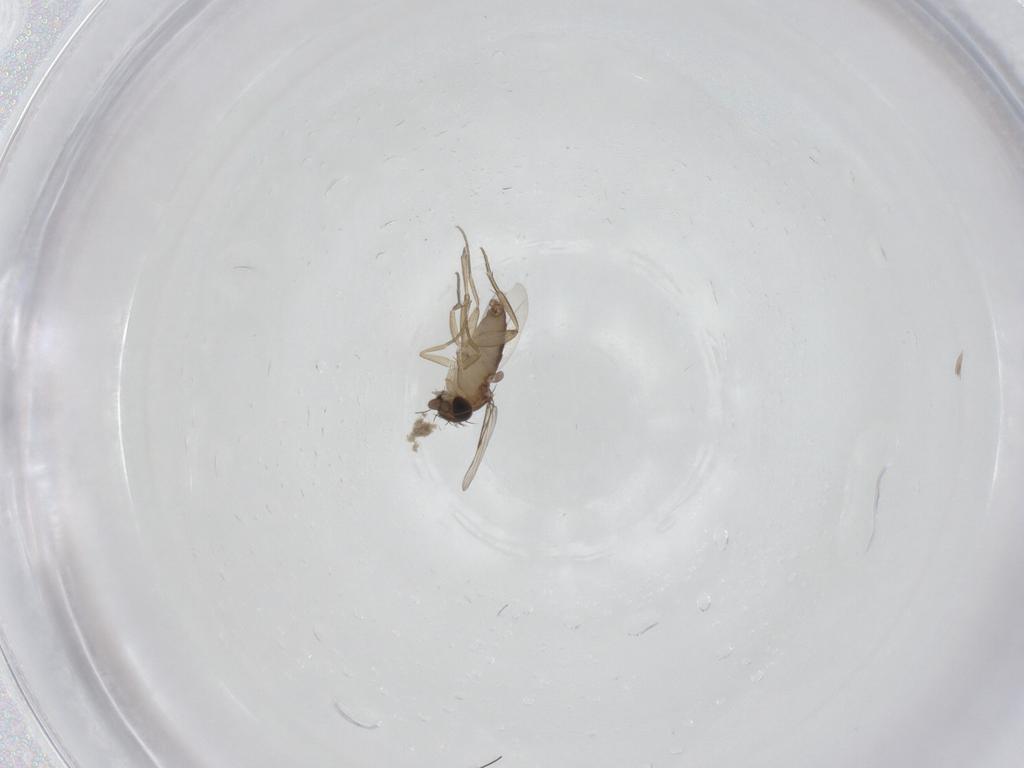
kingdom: Animalia
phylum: Arthropoda
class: Insecta
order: Diptera
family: Phoridae
